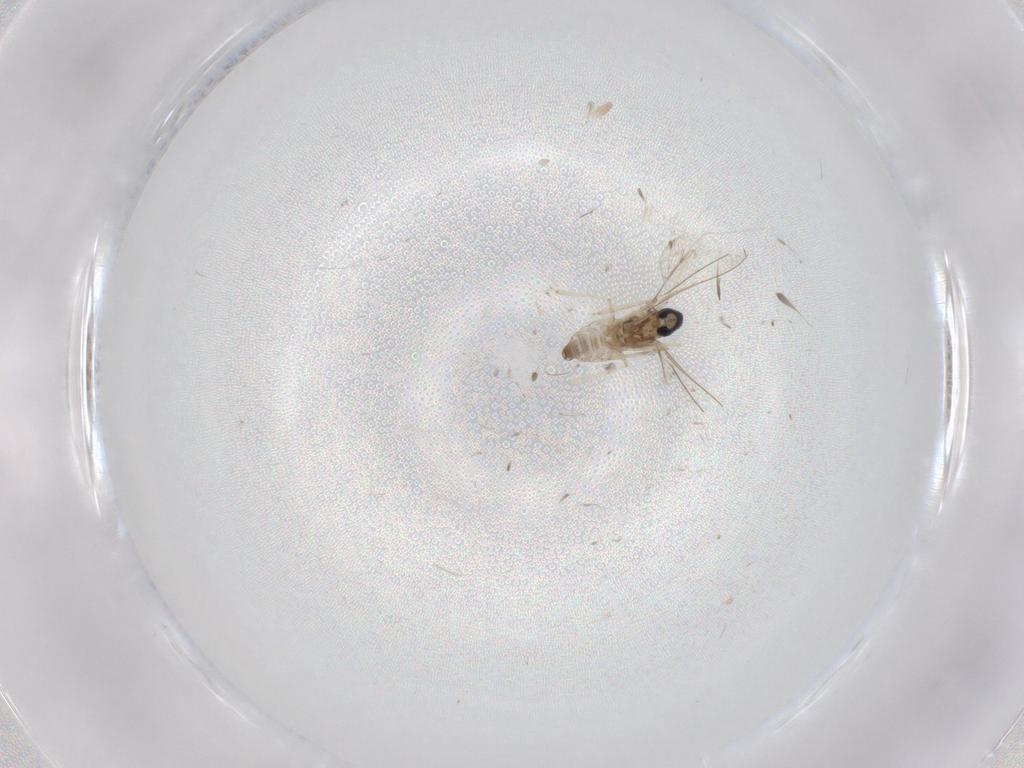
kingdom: Animalia
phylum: Arthropoda
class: Insecta
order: Diptera
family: Cecidomyiidae
